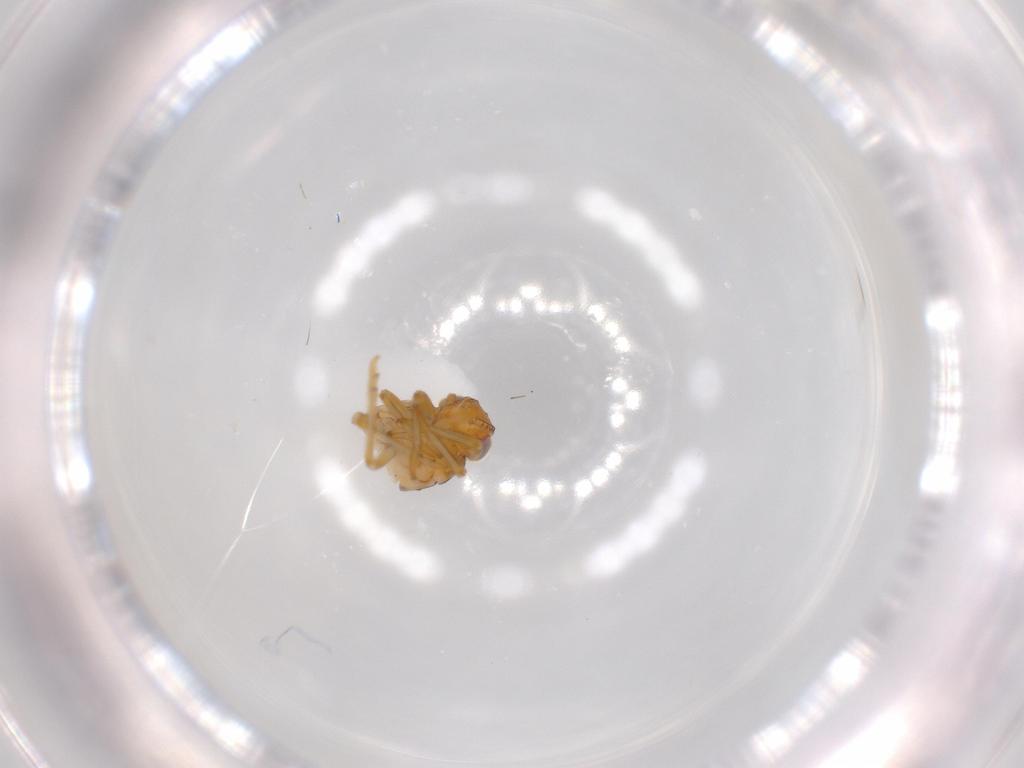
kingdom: Animalia
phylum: Arthropoda
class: Insecta
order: Hemiptera
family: Issidae
